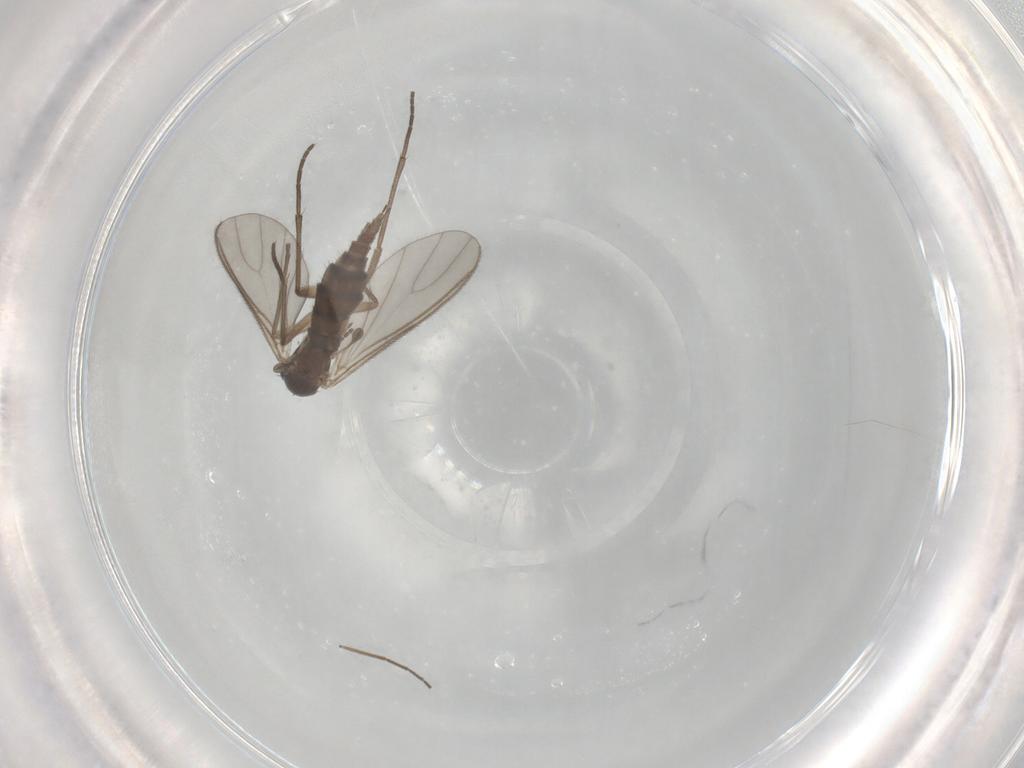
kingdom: Animalia
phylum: Arthropoda
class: Insecta
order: Diptera
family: Sciaridae
